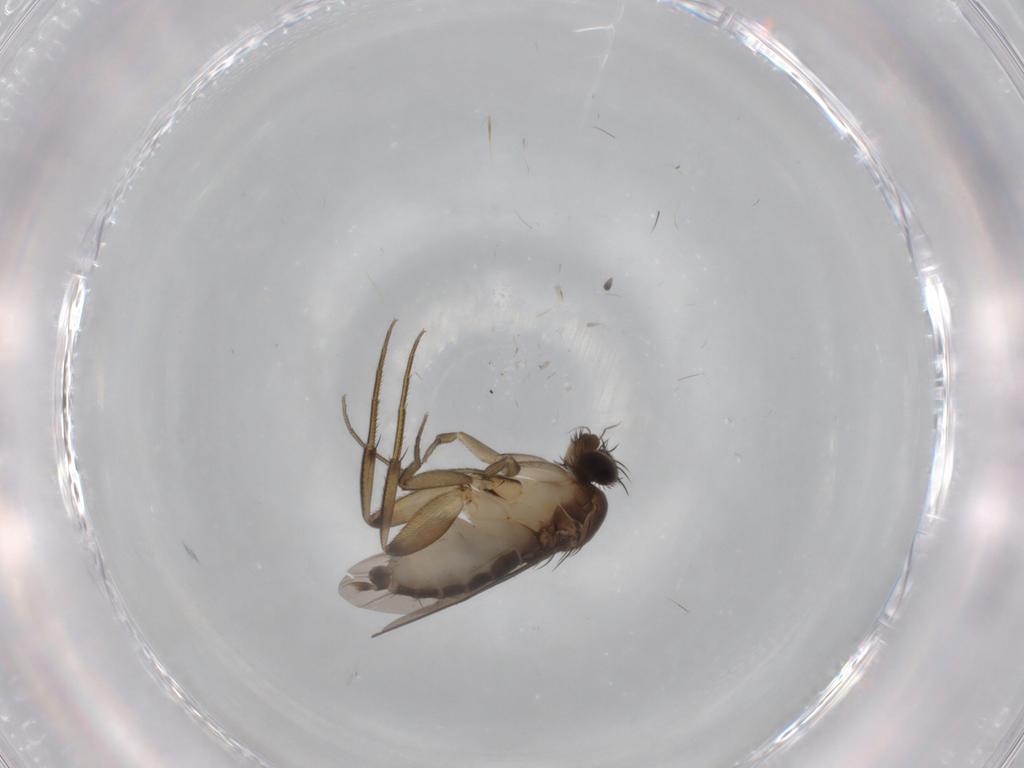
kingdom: Animalia
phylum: Arthropoda
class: Insecta
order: Diptera
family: Phoridae
